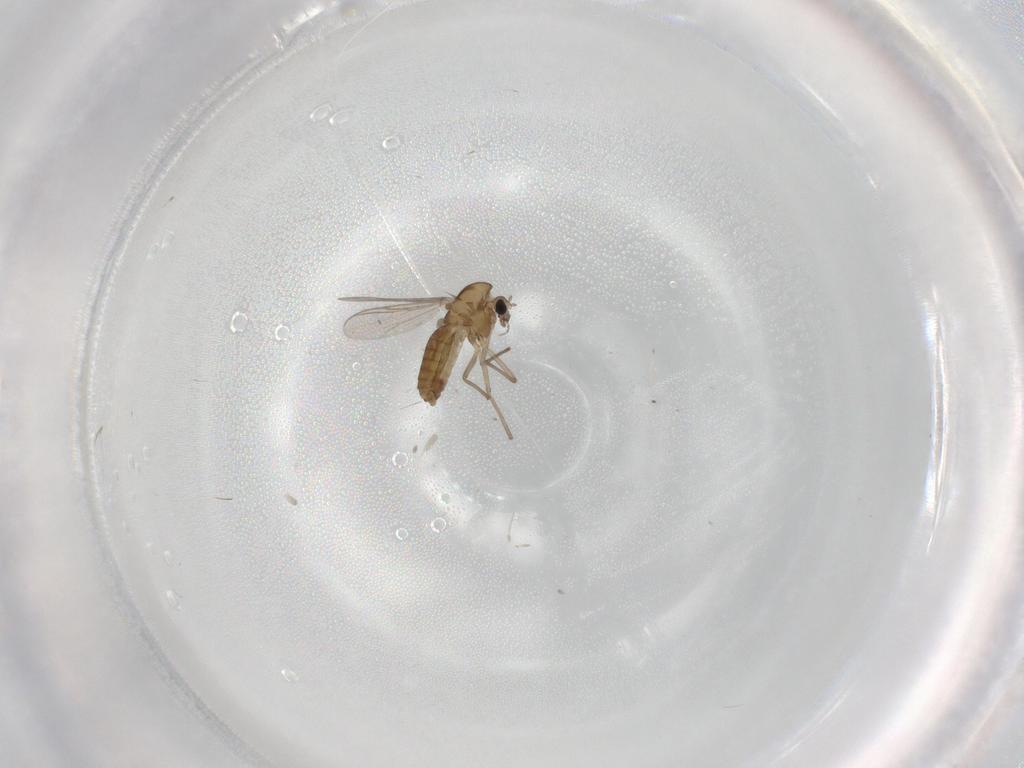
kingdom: Animalia
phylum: Arthropoda
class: Insecta
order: Diptera
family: Chironomidae
